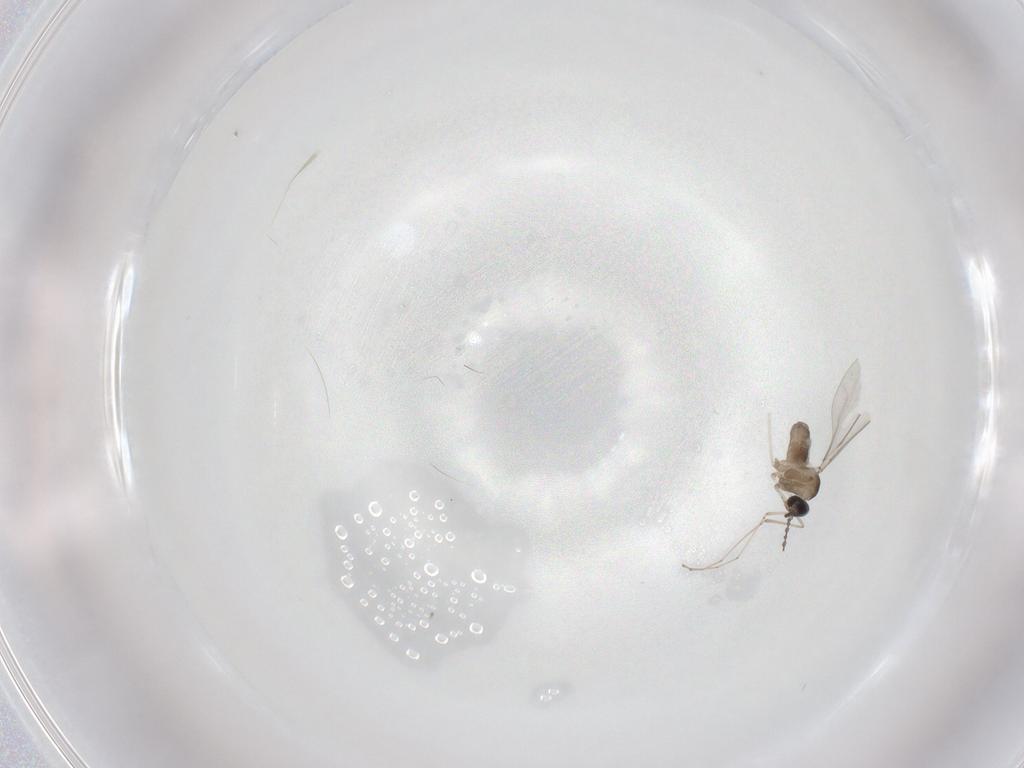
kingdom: Animalia
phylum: Arthropoda
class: Insecta
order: Diptera
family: Cecidomyiidae
